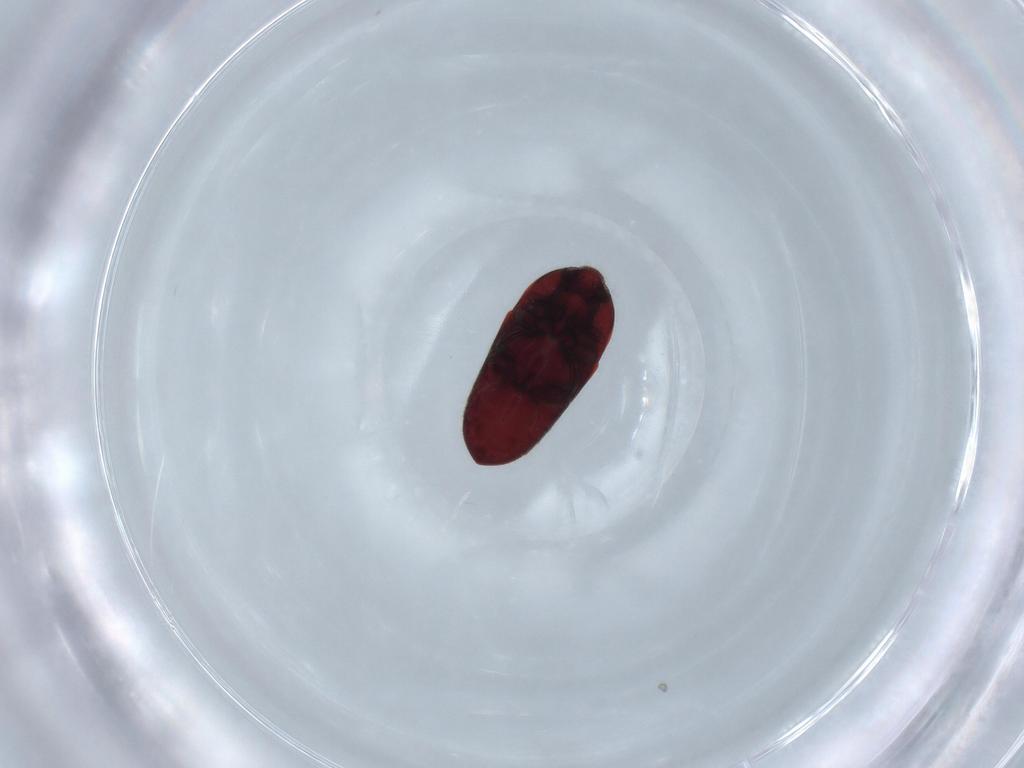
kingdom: Animalia
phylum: Arthropoda
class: Insecta
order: Coleoptera
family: Throscidae
